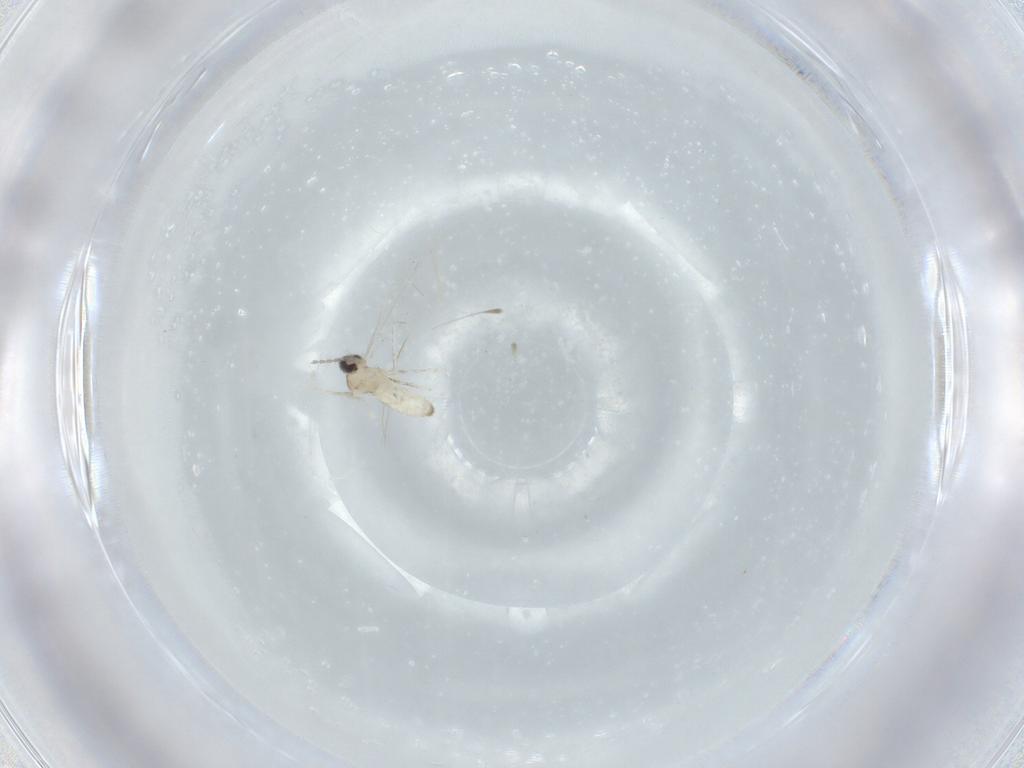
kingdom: Animalia
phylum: Arthropoda
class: Insecta
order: Diptera
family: Cecidomyiidae
